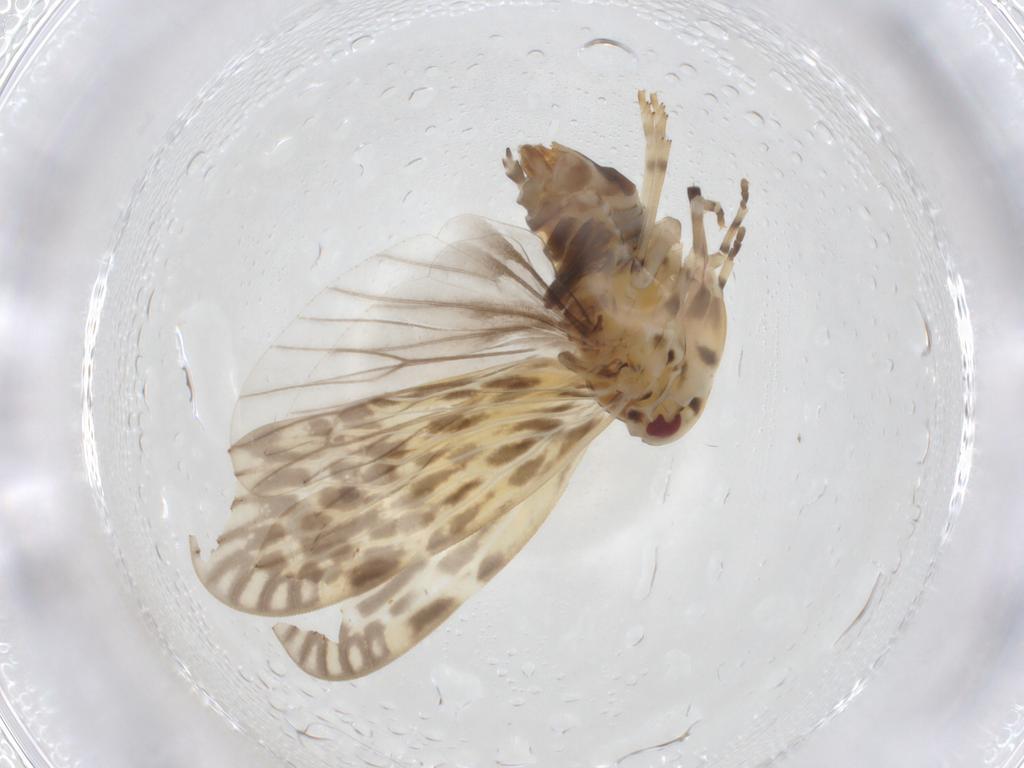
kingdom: Animalia
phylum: Arthropoda
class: Insecta
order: Hemiptera
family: Derbidae
